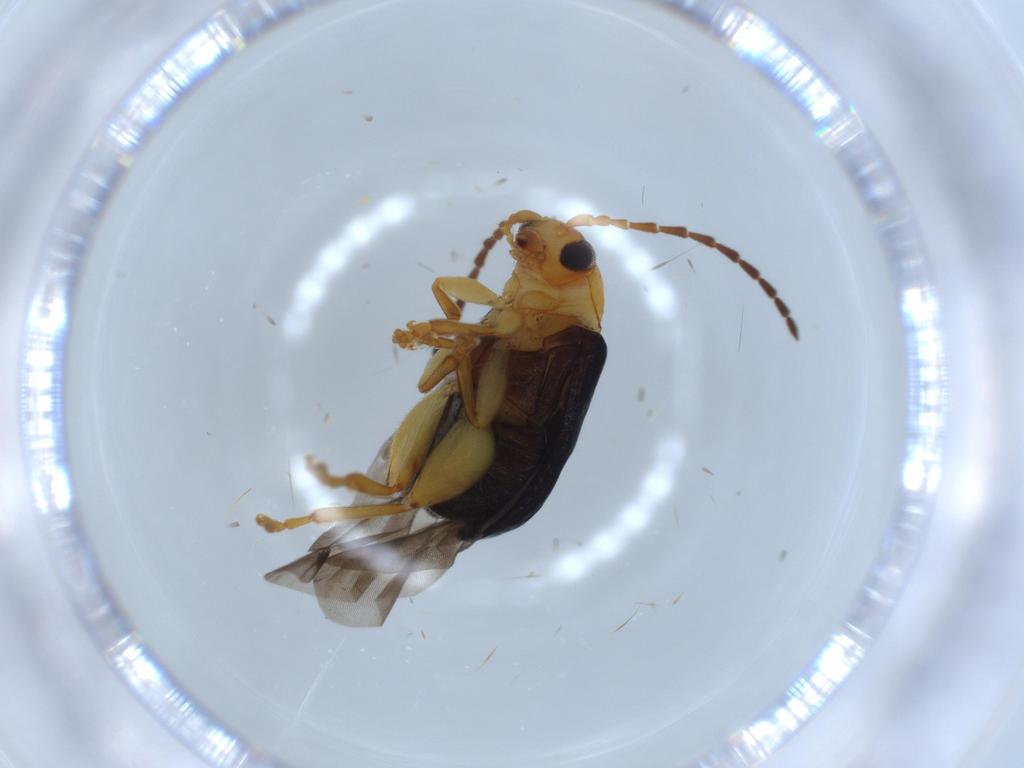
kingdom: Animalia
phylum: Arthropoda
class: Insecta
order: Coleoptera
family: Chrysomelidae
